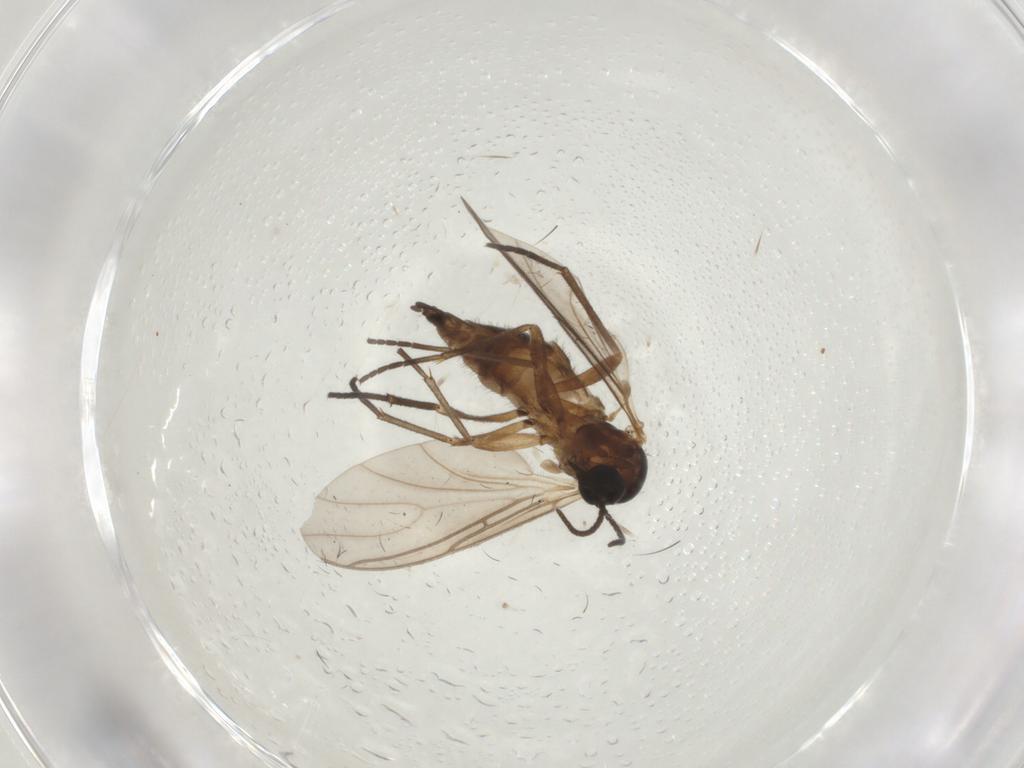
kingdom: Animalia
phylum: Arthropoda
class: Insecta
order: Diptera
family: Sciaridae
